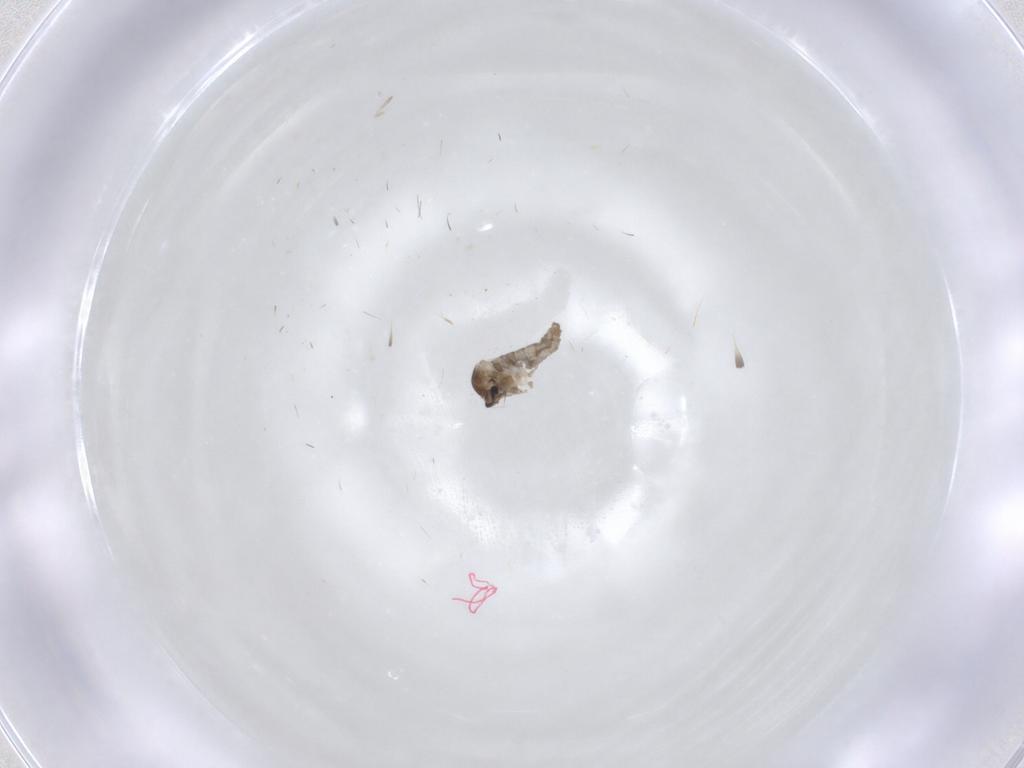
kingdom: Animalia
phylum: Arthropoda
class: Insecta
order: Diptera
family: Cecidomyiidae
